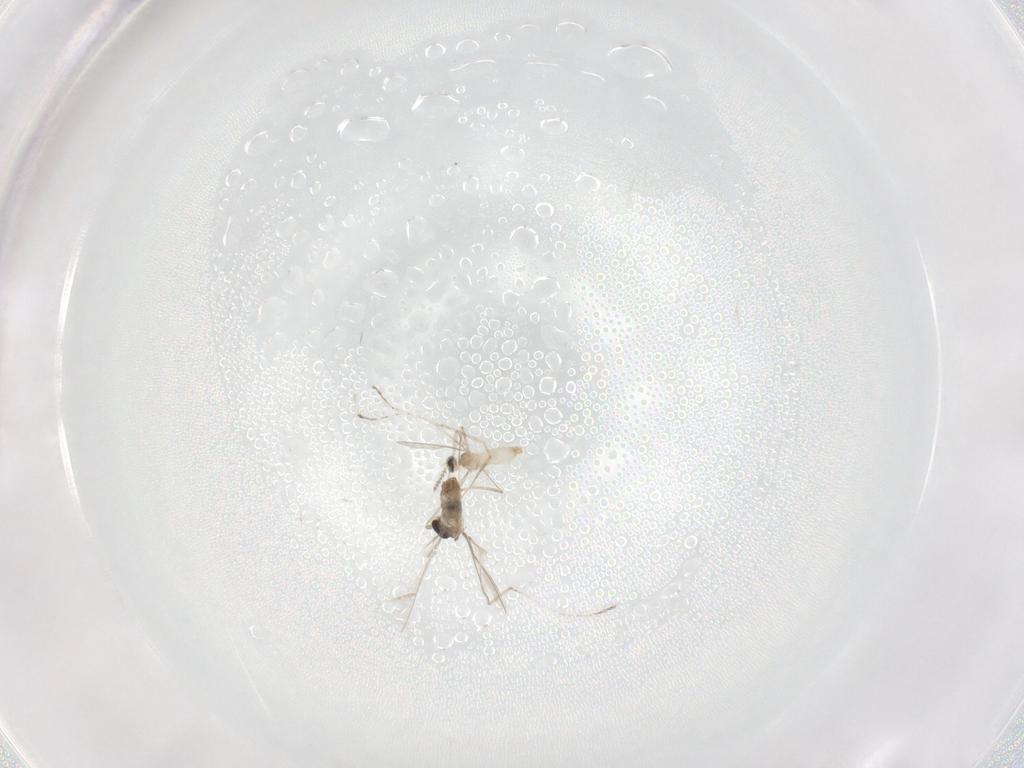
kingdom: Animalia
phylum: Arthropoda
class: Insecta
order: Diptera
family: Cecidomyiidae
